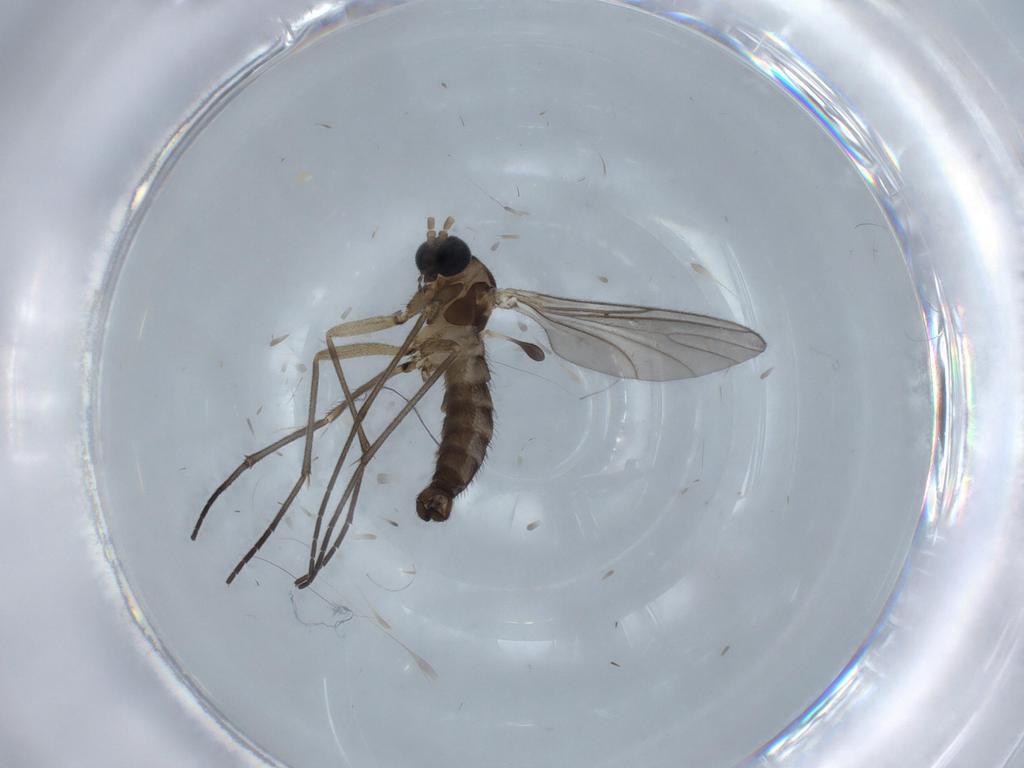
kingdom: Animalia
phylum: Arthropoda
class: Insecta
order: Diptera
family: Sciaridae
